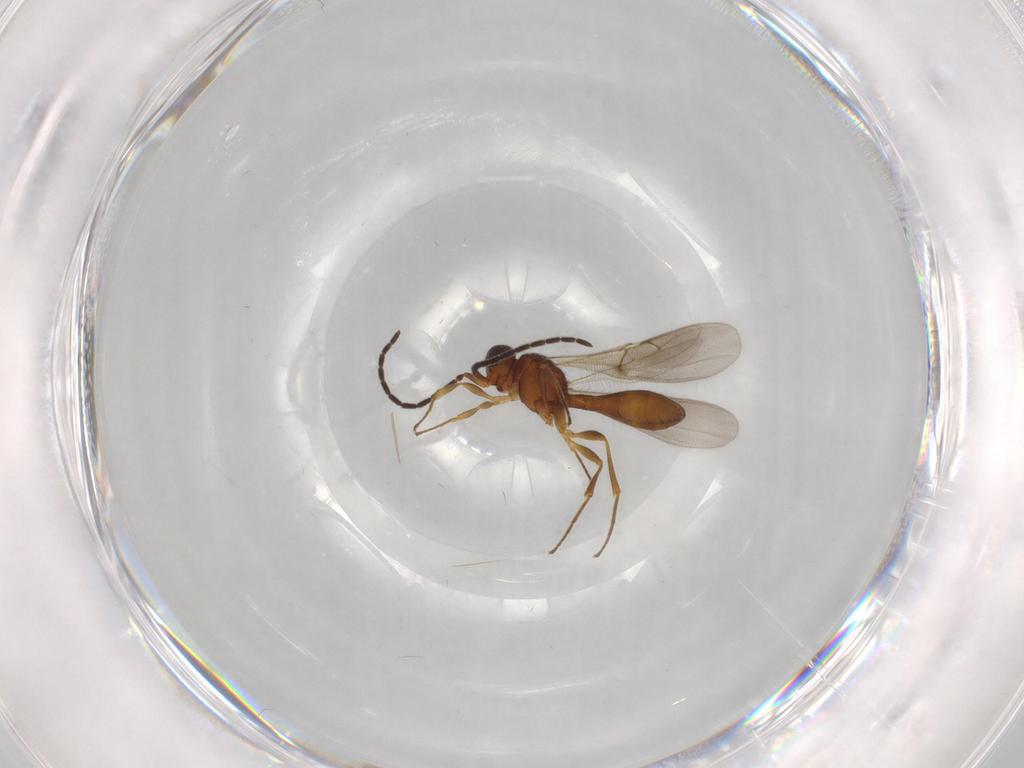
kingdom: Animalia
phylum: Arthropoda
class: Insecta
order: Hymenoptera
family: Scelionidae
